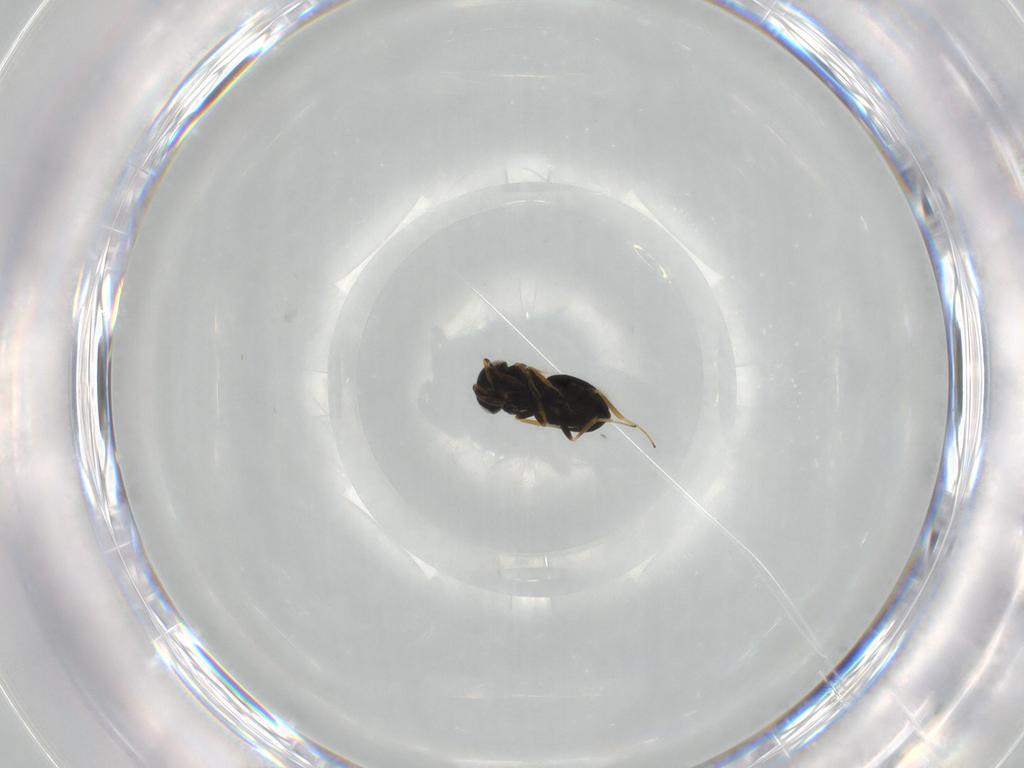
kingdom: Animalia
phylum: Arthropoda
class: Insecta
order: Hymenoptera
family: Scelionidae
